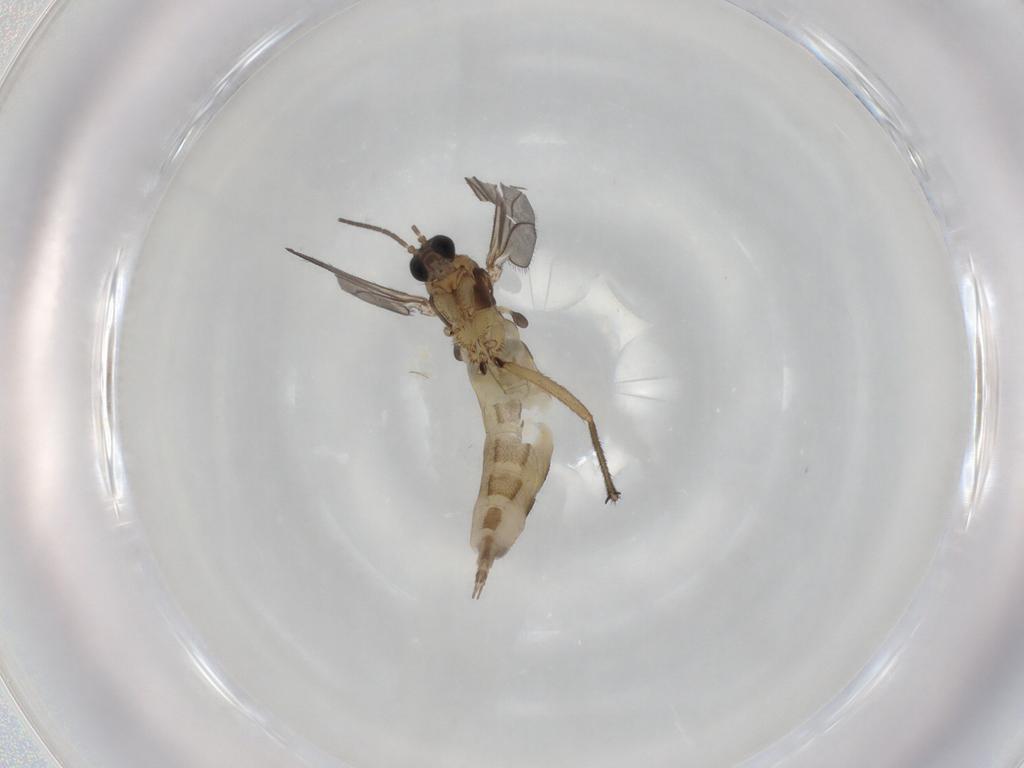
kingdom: Animalia
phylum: Arthropoda
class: Insecta
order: Diptera
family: Sciaridae
